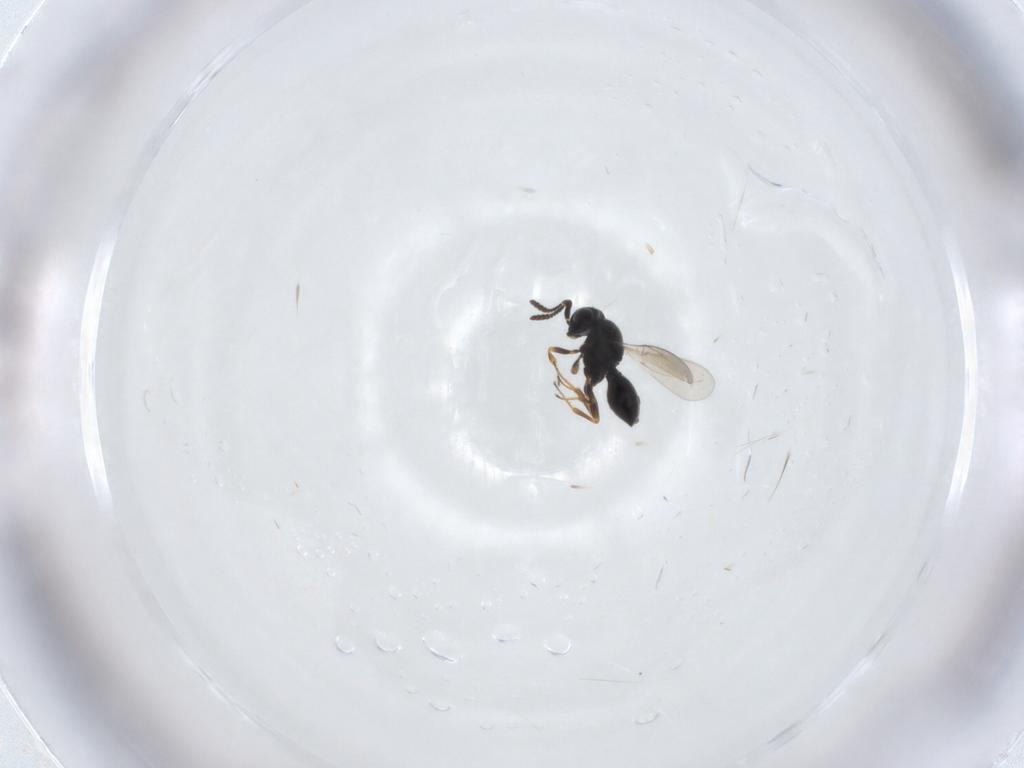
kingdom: Animalia
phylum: Arthropoda
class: Insecta
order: Hymenoptera
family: Scelionidae
